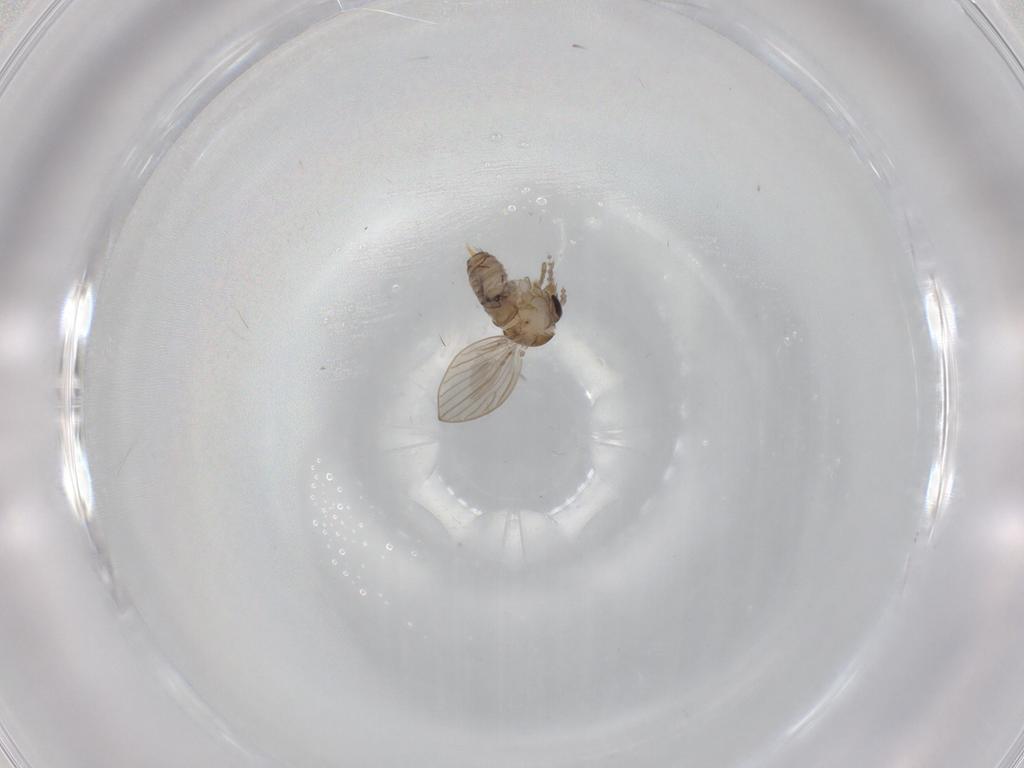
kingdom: Animalia
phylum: Arthropoda
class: Insecta
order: Diptera
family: Psychodidae
